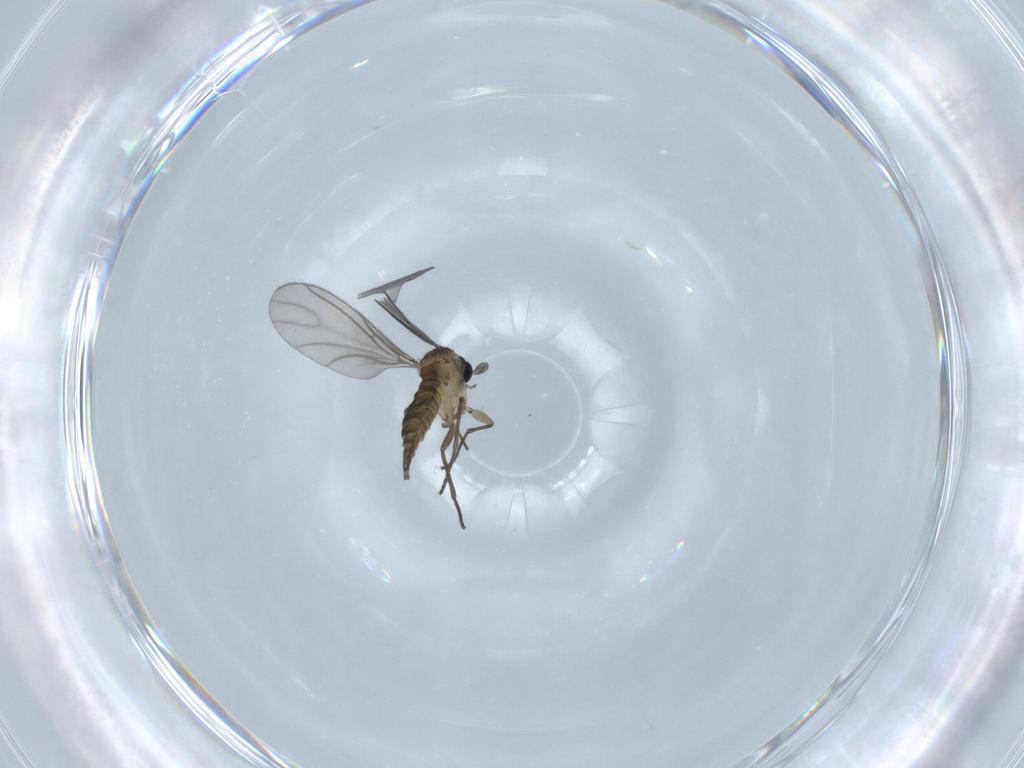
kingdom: Animalia
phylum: Arthropoda
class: Insecta
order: Diptera
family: Sciaridae
